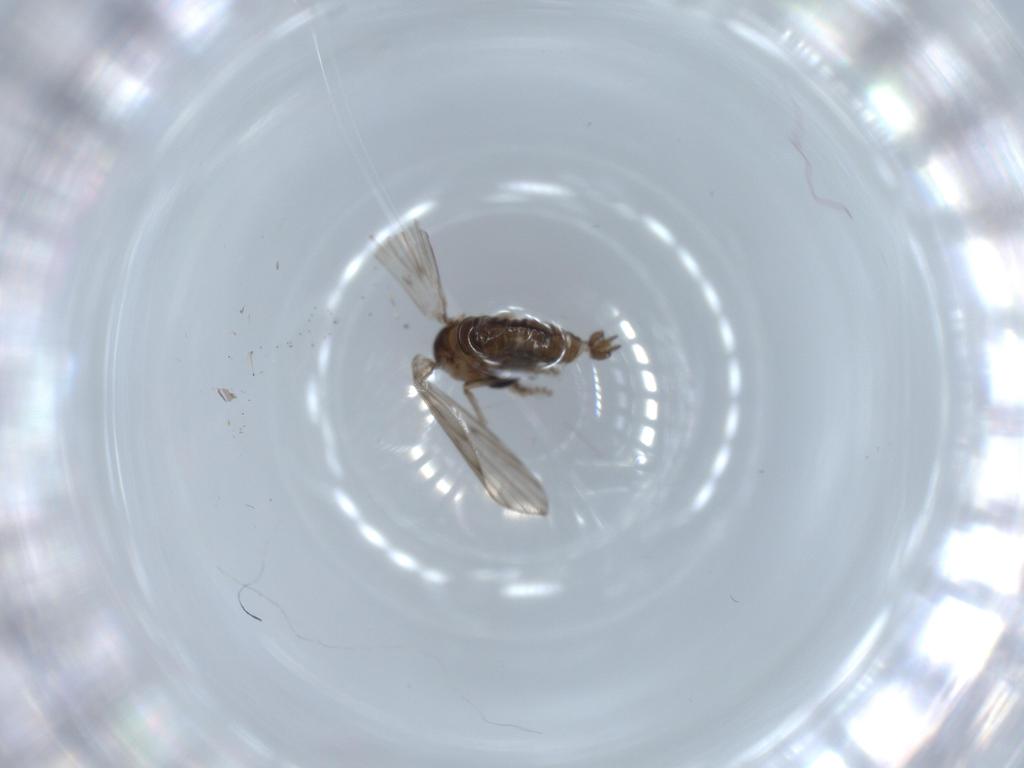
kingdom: Animalia
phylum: Arthropoda
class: Insecta
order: Diptera
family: Psychodidae
